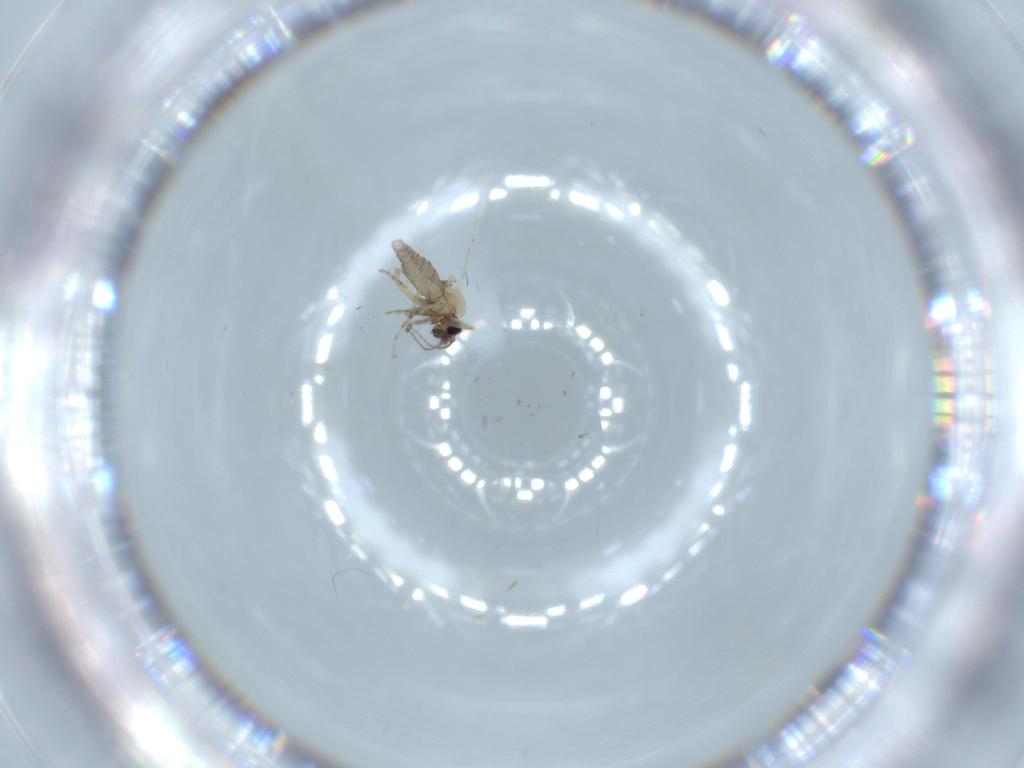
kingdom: Animalia
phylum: Arthropoda
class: Insecta
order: Diptera
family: Ceratopogonidae
